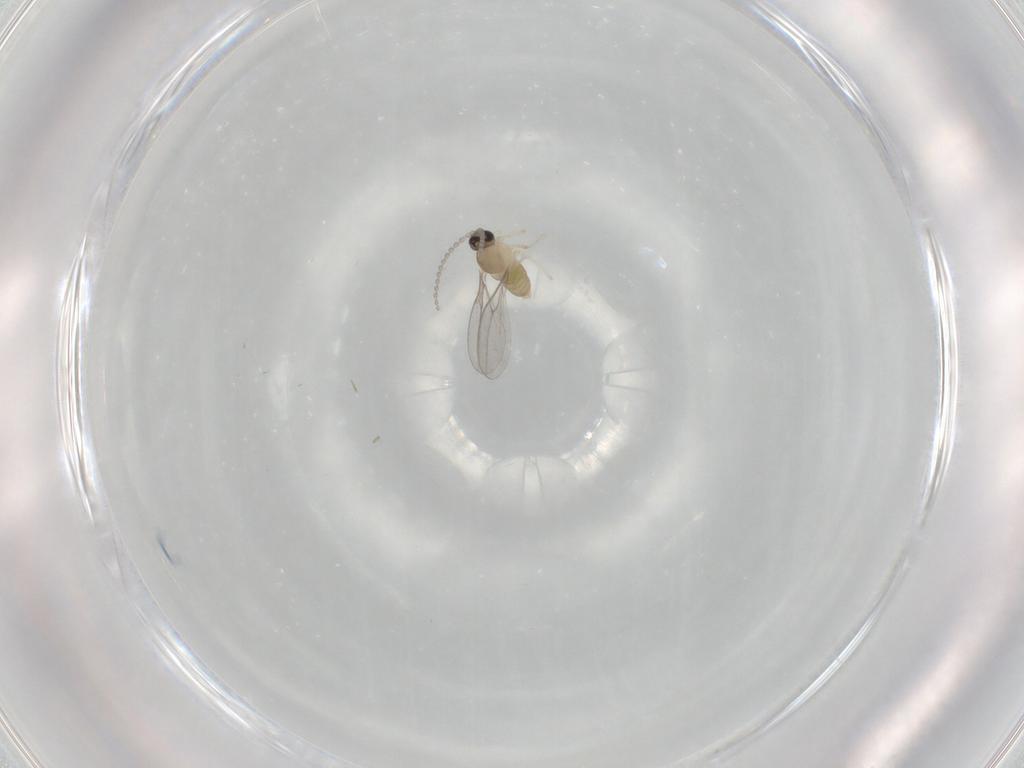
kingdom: Animalia
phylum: Arthropoda
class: Insecta
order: Diptera
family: Cecidomyiidae
